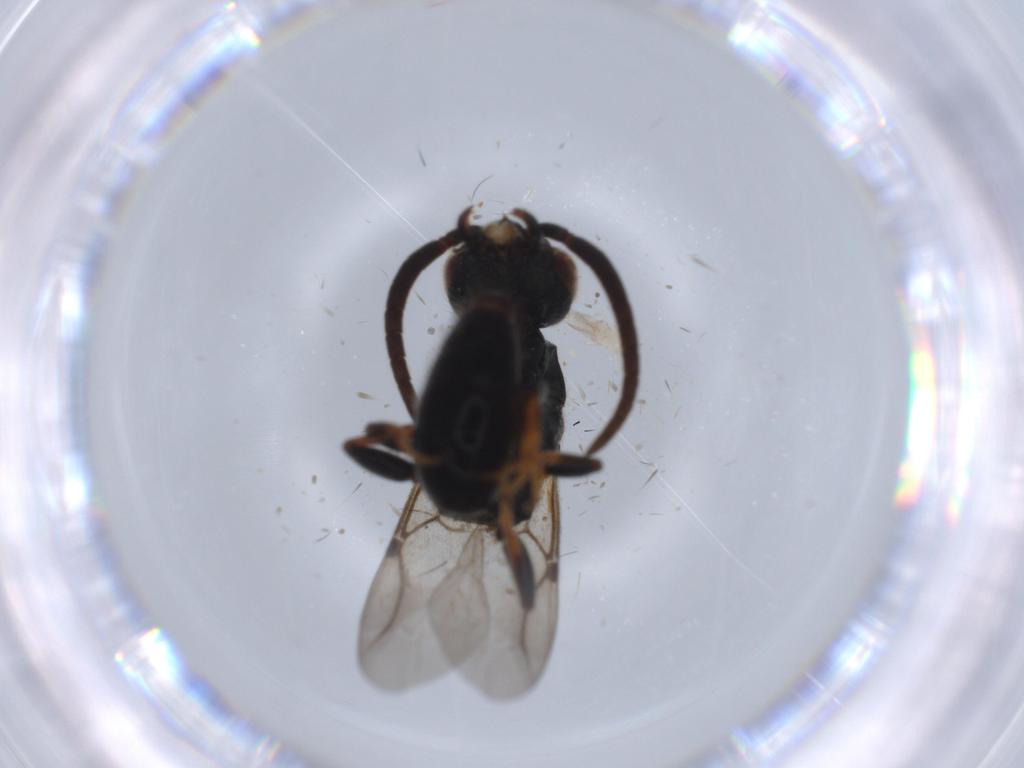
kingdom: Animalia
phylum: Arthropoda
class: Insecta
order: Hymenoptera
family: Bethylidae
